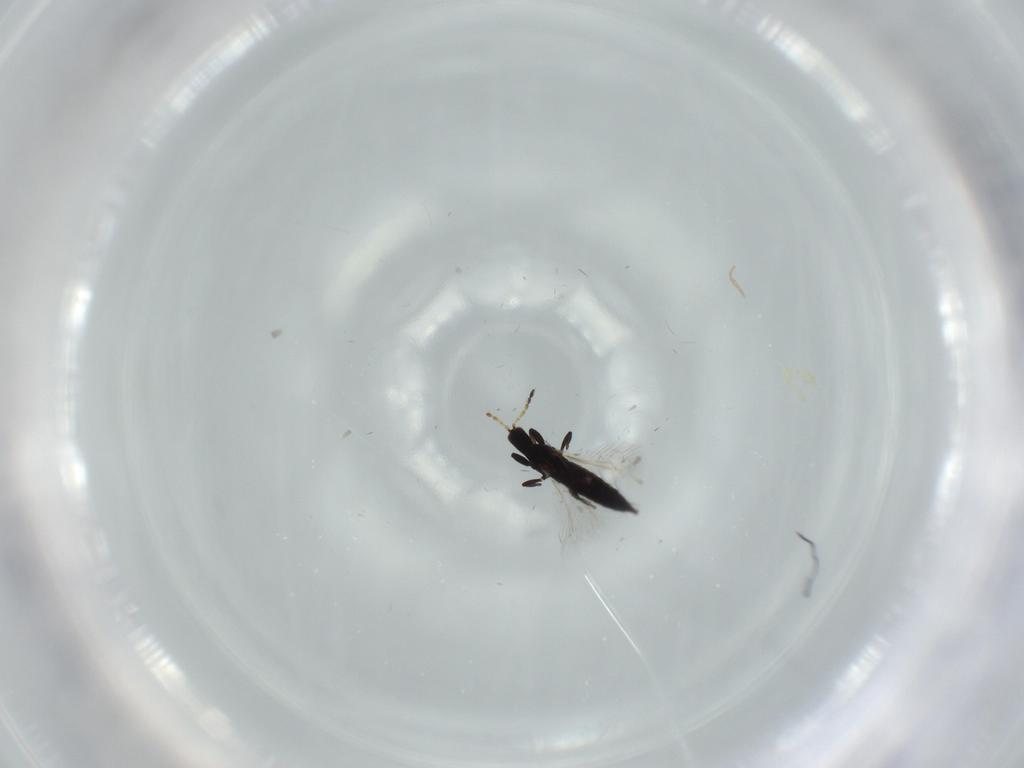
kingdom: Animalia
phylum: Arthropoda
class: Insecta
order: Thysanoptera
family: Phlaeothripidae
